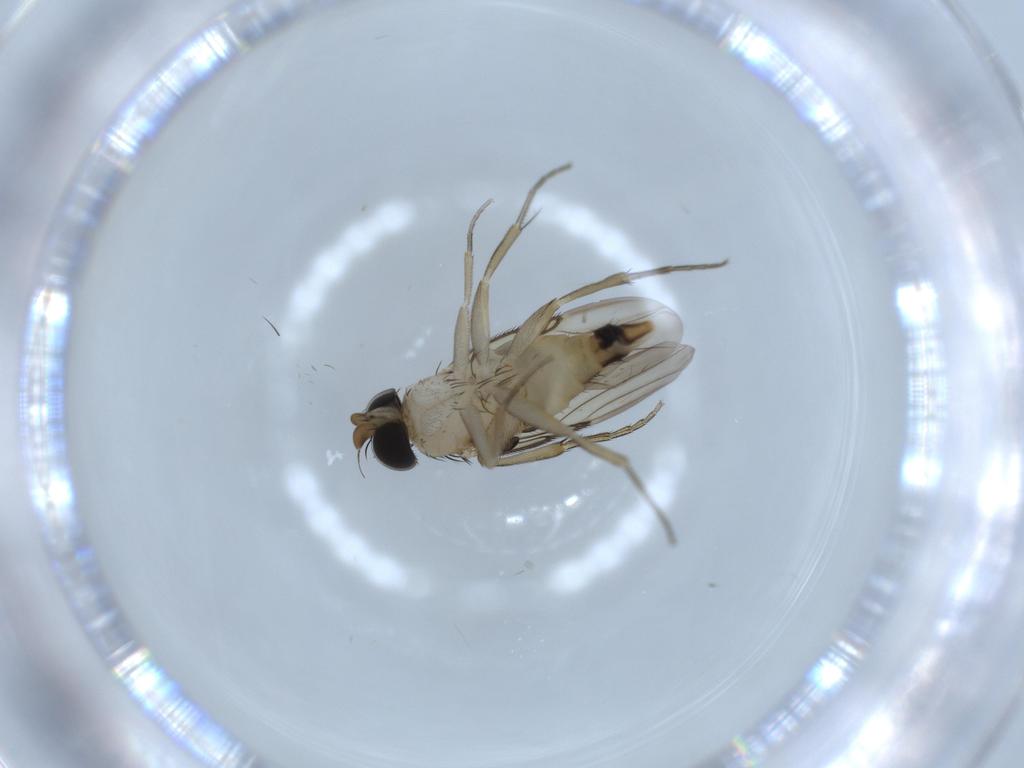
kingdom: Animalia
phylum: Arthropoda
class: Insecta
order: Diptera
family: Phoridae
